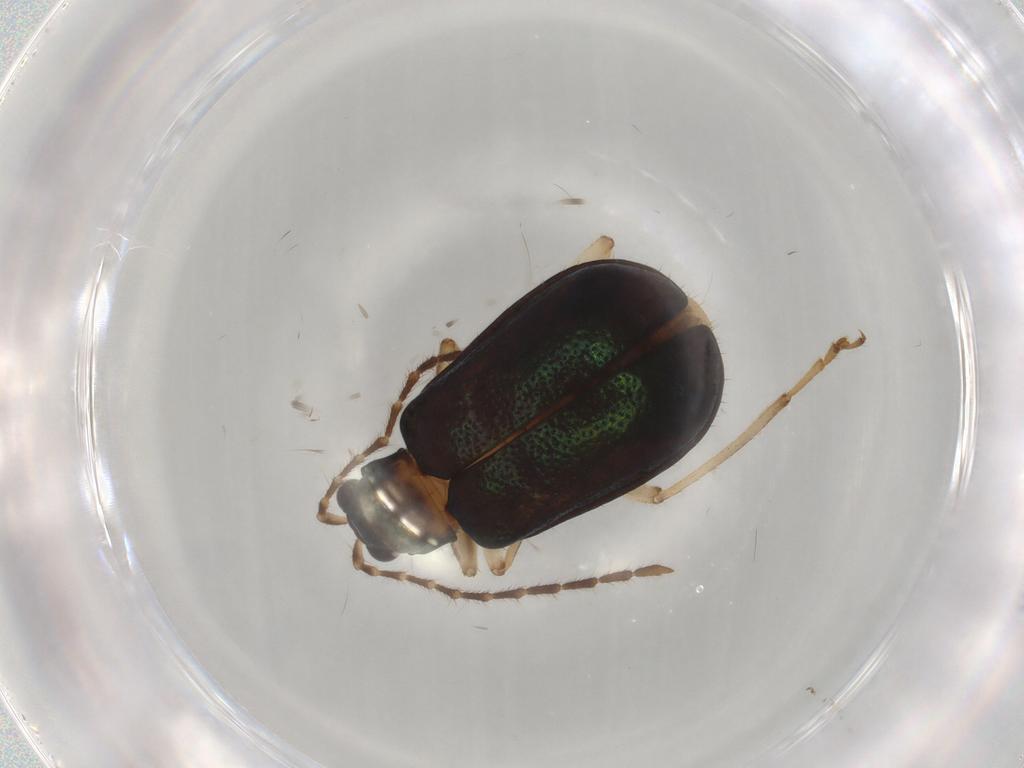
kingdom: Animalia
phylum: Arthropoda
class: Insecta
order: Coleoptera
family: Chrysomelidae
